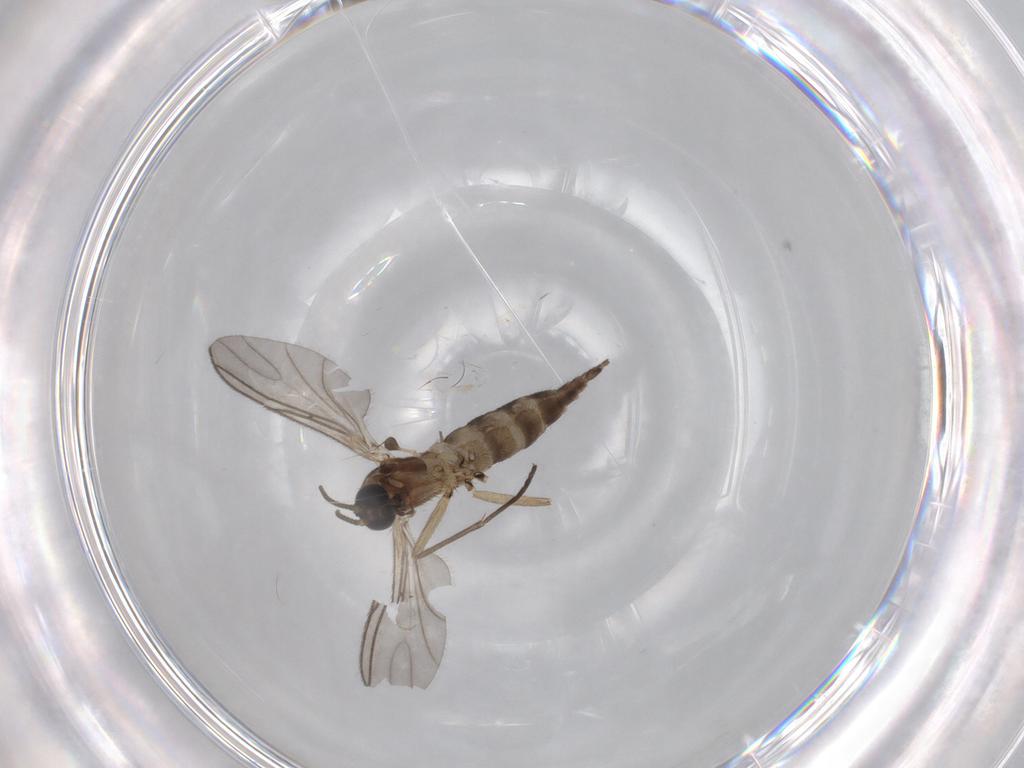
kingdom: Animalia
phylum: Arthropoda
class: Insecta
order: Diptera
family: Sciaridae
